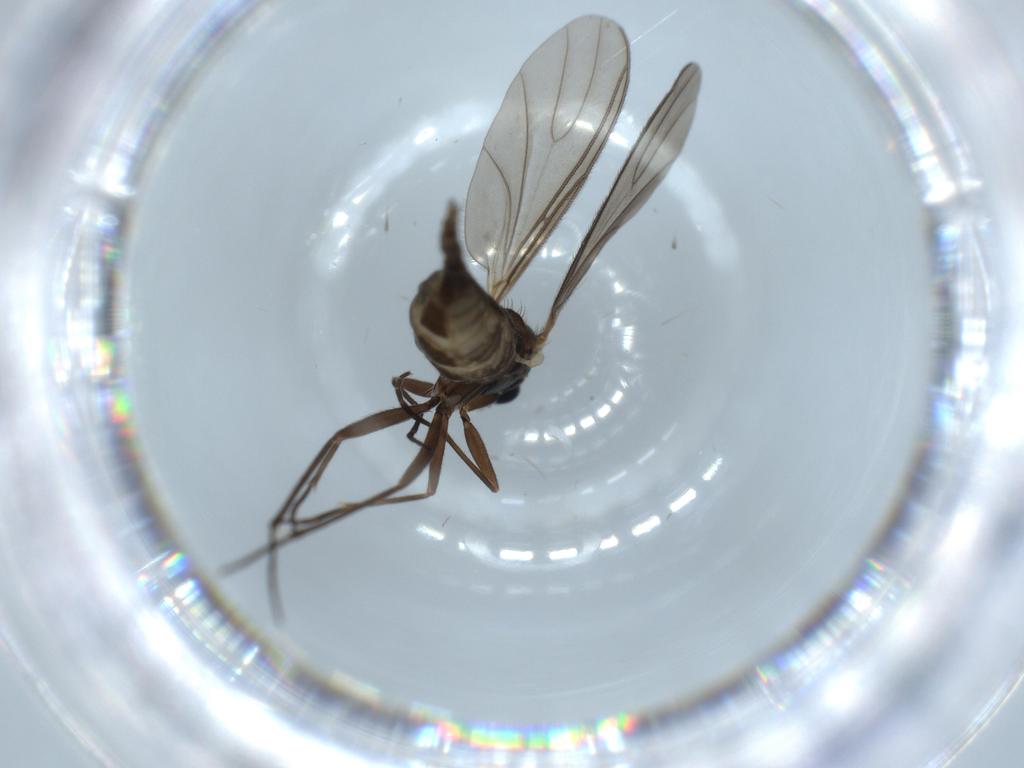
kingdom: Animalia
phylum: Arthropoda
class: Insecta
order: Diptera
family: Sciaridae
